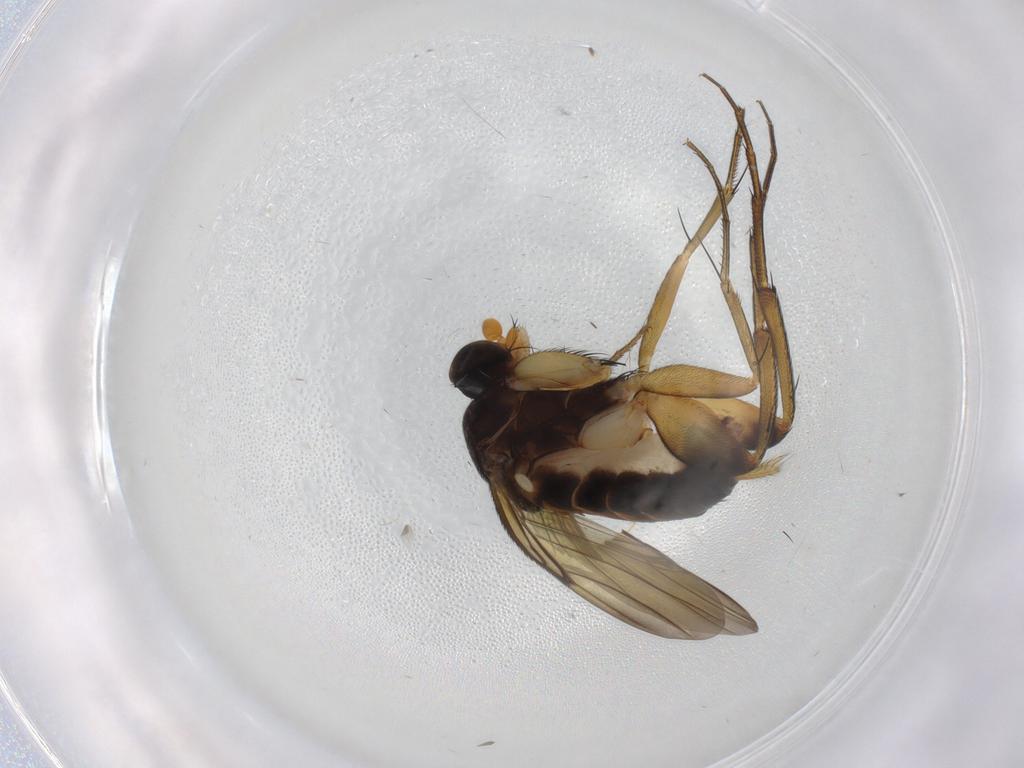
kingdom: Animalia
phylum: Arthropoda
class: Insecta
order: Diptera
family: Phoridae
